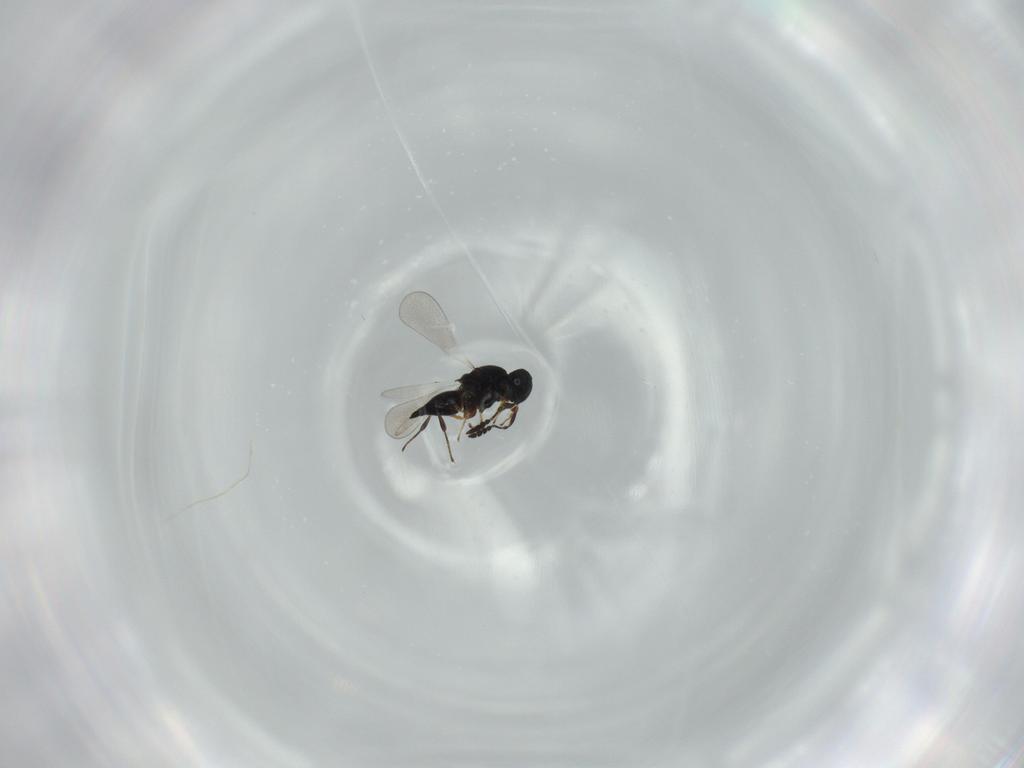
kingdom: Animalia
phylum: Arthropoda
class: Insecta
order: Hymenoptera
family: Platygastridae
